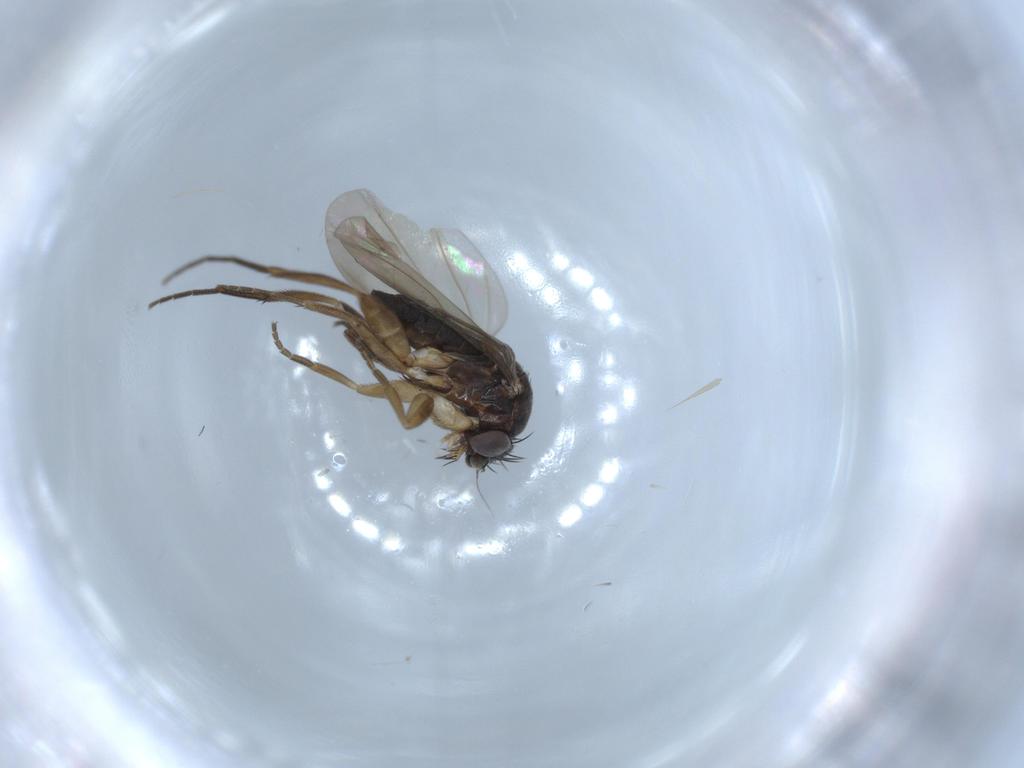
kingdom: Animalia
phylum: Arthropoda
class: Insecta
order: Diptera
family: Phoridae
